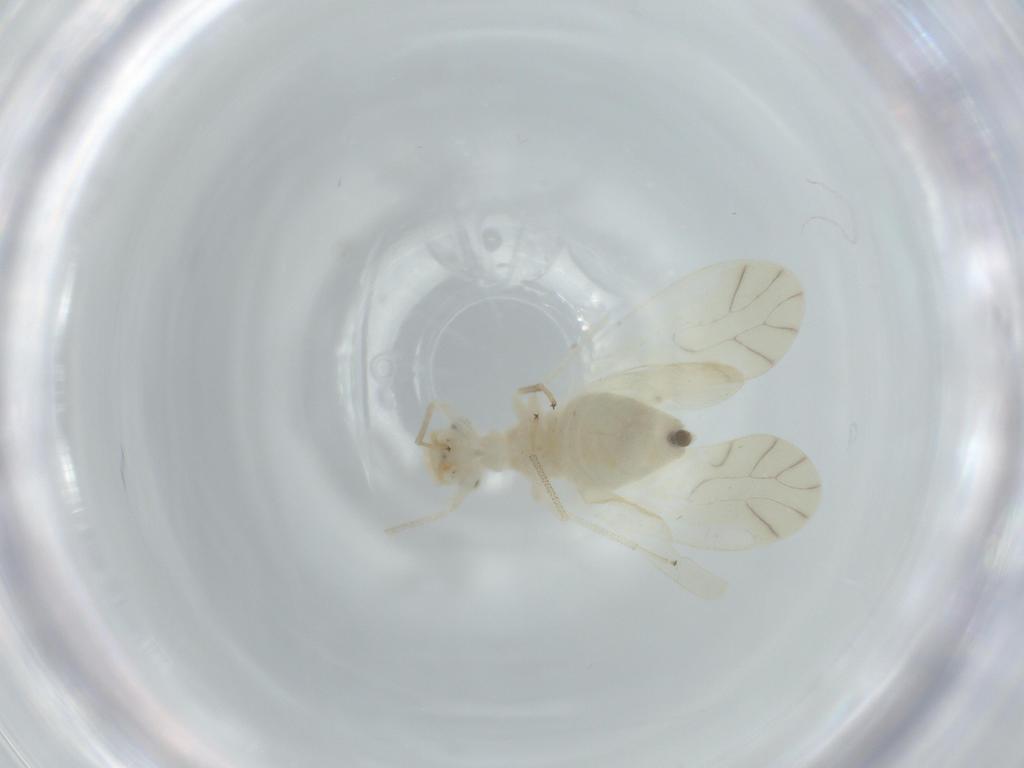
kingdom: Animalia
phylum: Arthropoda
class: Insecta
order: Psocodea
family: Caeciliusidae
